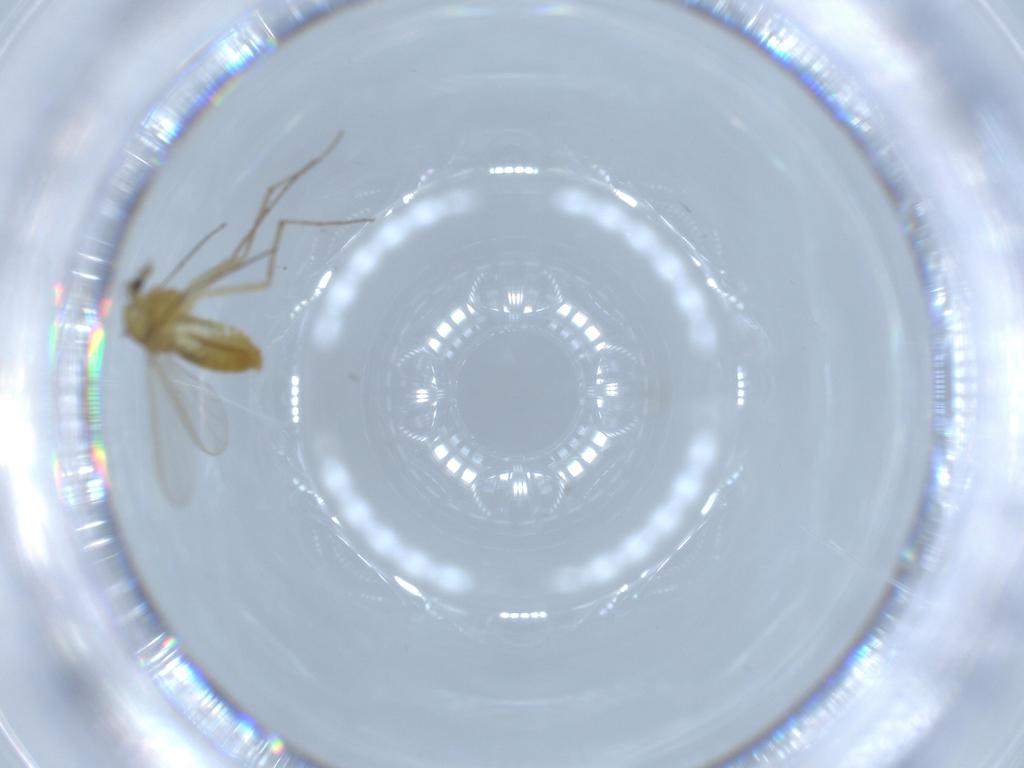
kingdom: Animalia
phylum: Arthropoda
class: Insecta
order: Diptera
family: Chironomidae
